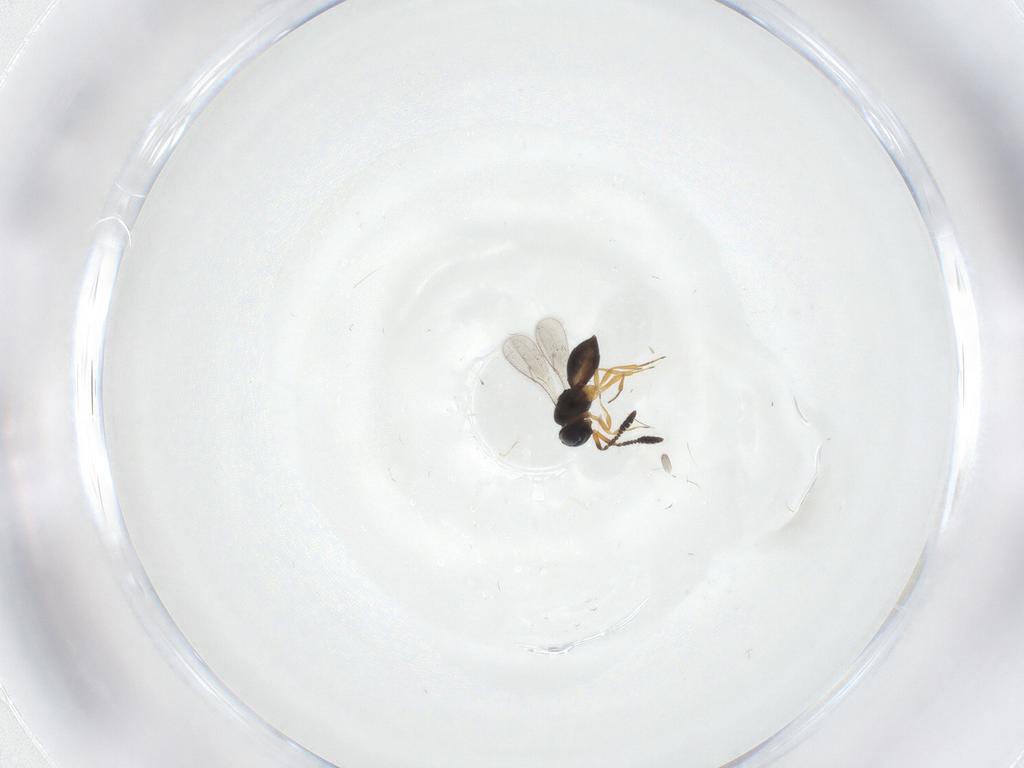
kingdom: Animalia
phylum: Arthropoda
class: Insecta
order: Hymenoptera
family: Scelionidae
